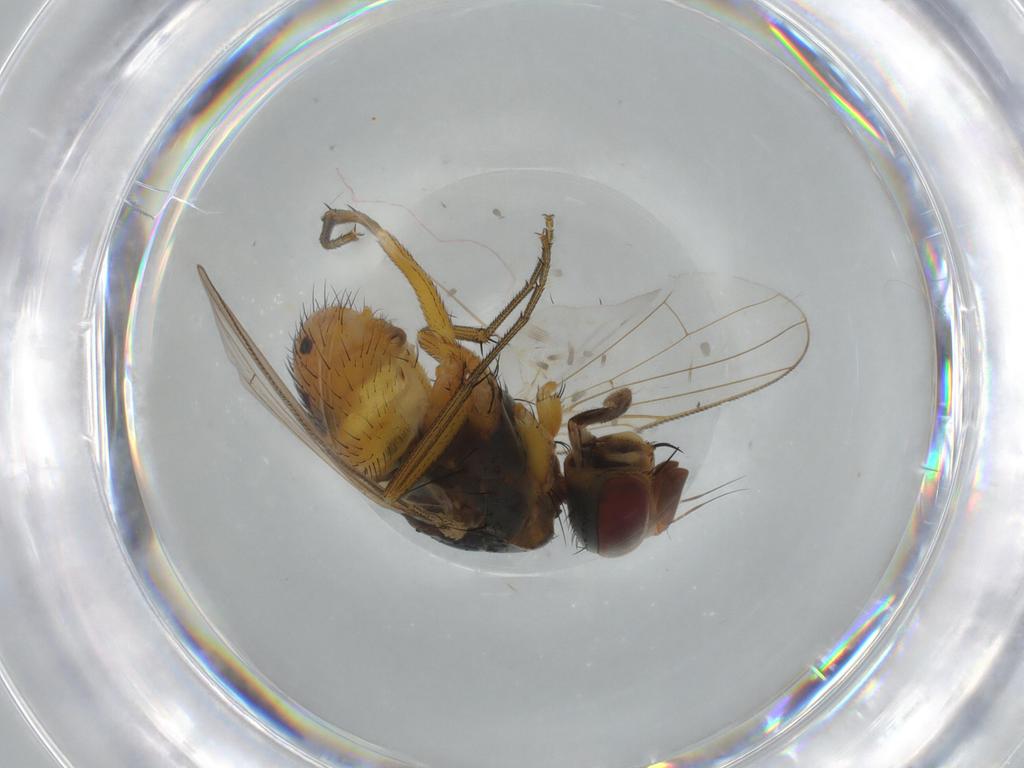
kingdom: Animalia
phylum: Arthropoda
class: Insecta
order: Diptera
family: Muscidae
